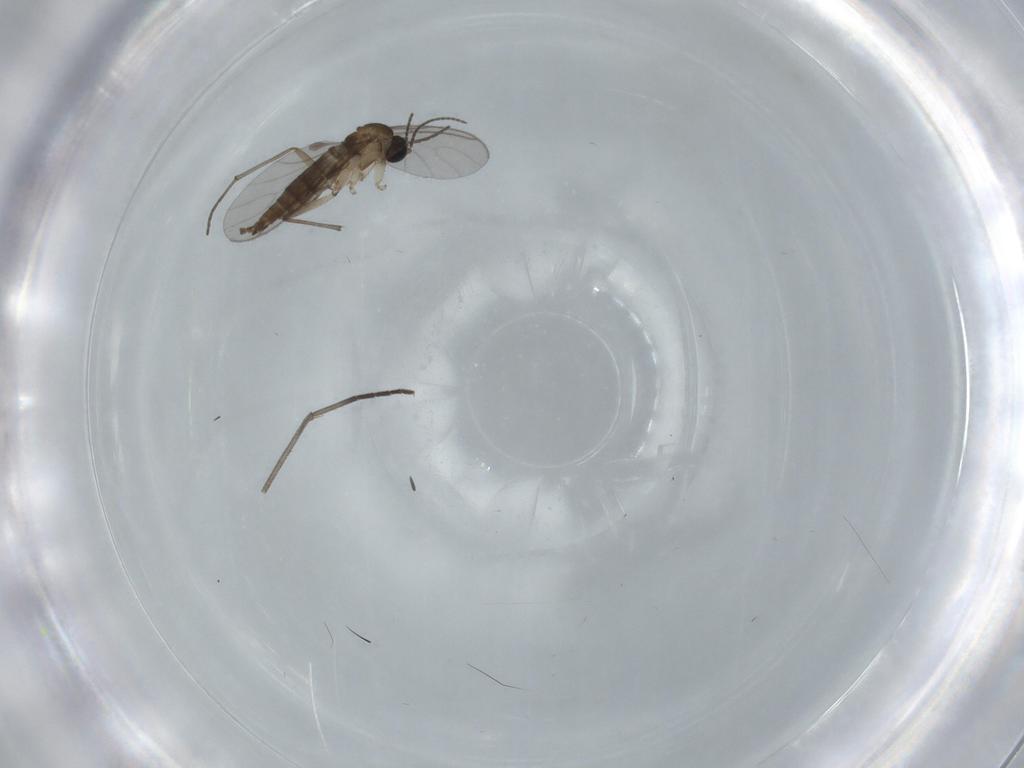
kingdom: Animalia
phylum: Arthropoda
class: Insecta
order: Diptera
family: Sciaridae
